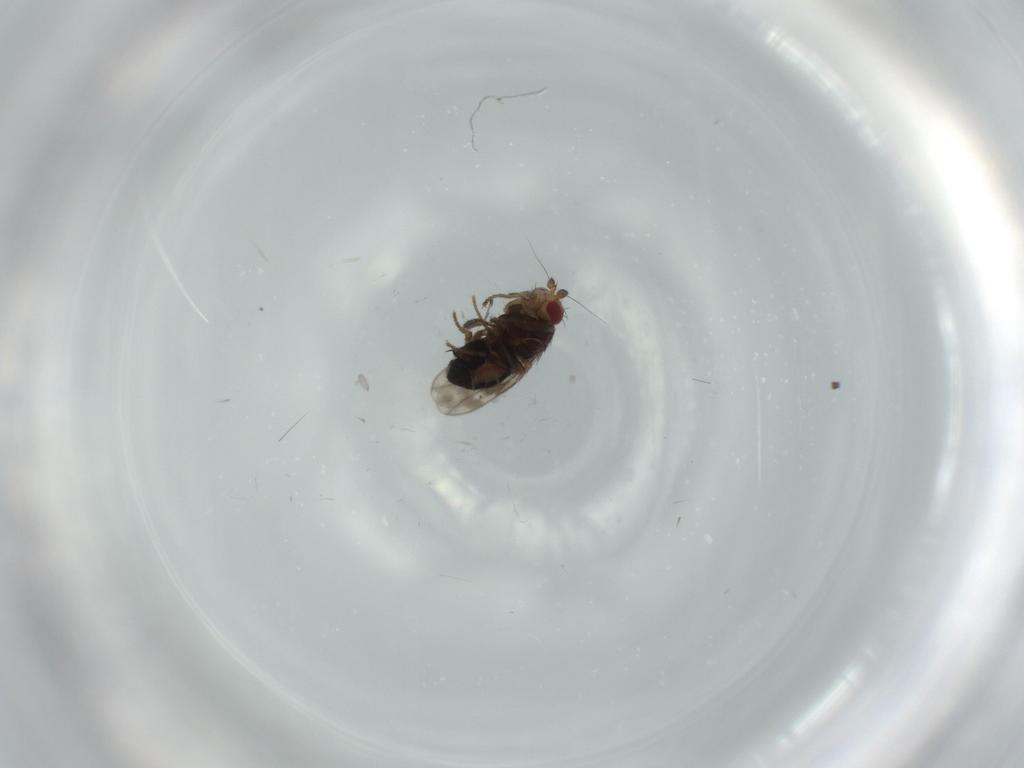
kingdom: Animalia
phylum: Arthropoda
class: Insecta
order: Diptera
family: Sphaeroceridae
